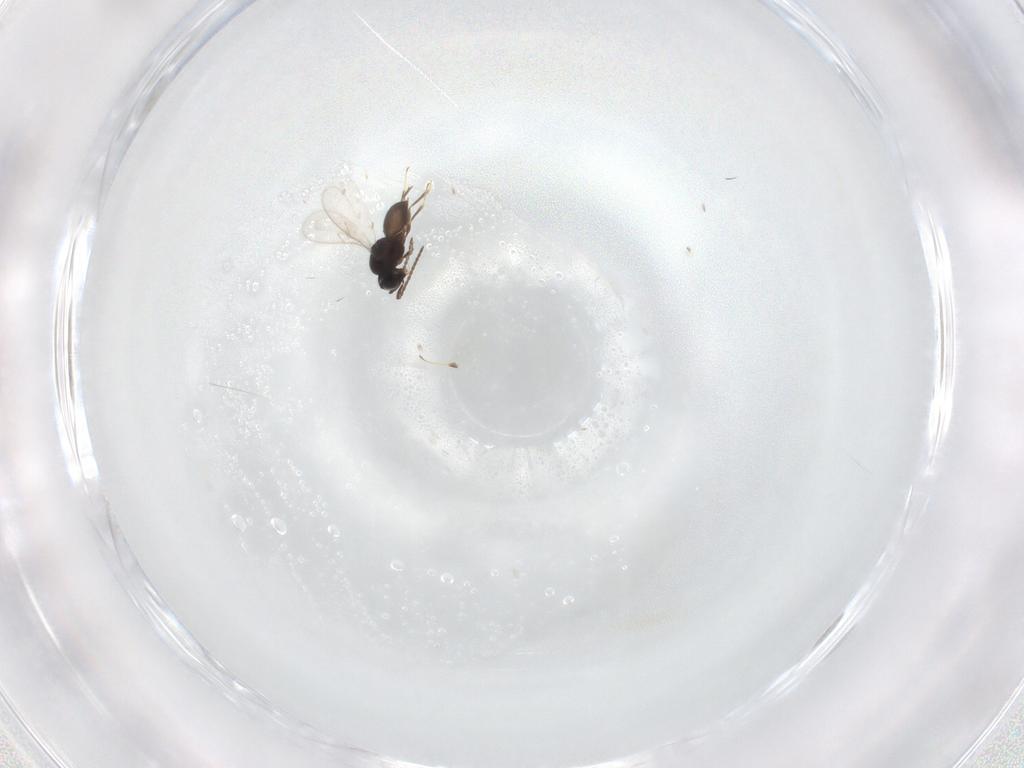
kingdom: Animalia
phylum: Arthropoda
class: Insecta
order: Hymenoptera
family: Scelionidae
